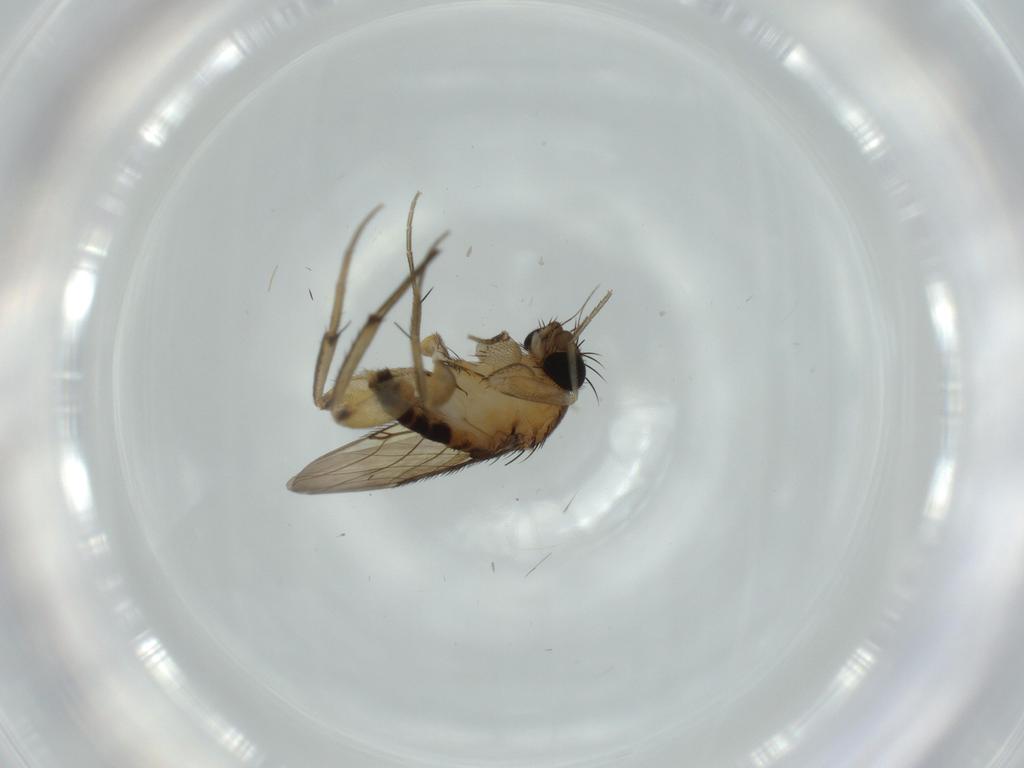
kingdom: Animalia
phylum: Arthropoda
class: Insecta
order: Diptera
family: Phoridae
